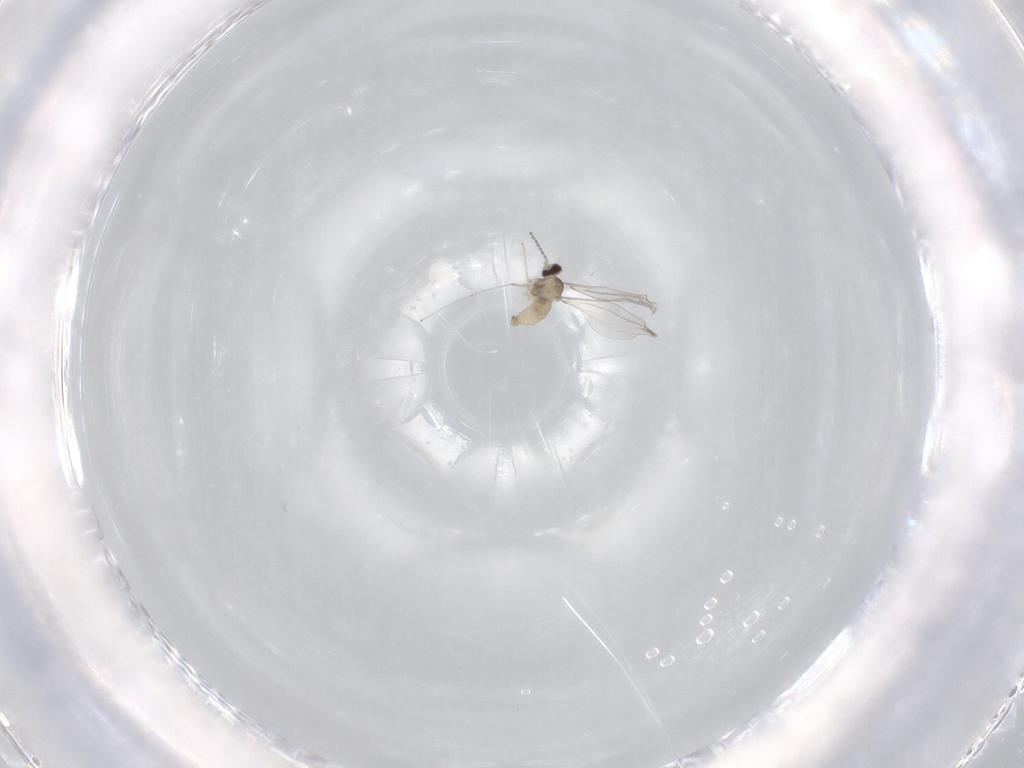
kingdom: Animalia
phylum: Arthropoda
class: Insecta
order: Diptera
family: Cecidomyiidae
